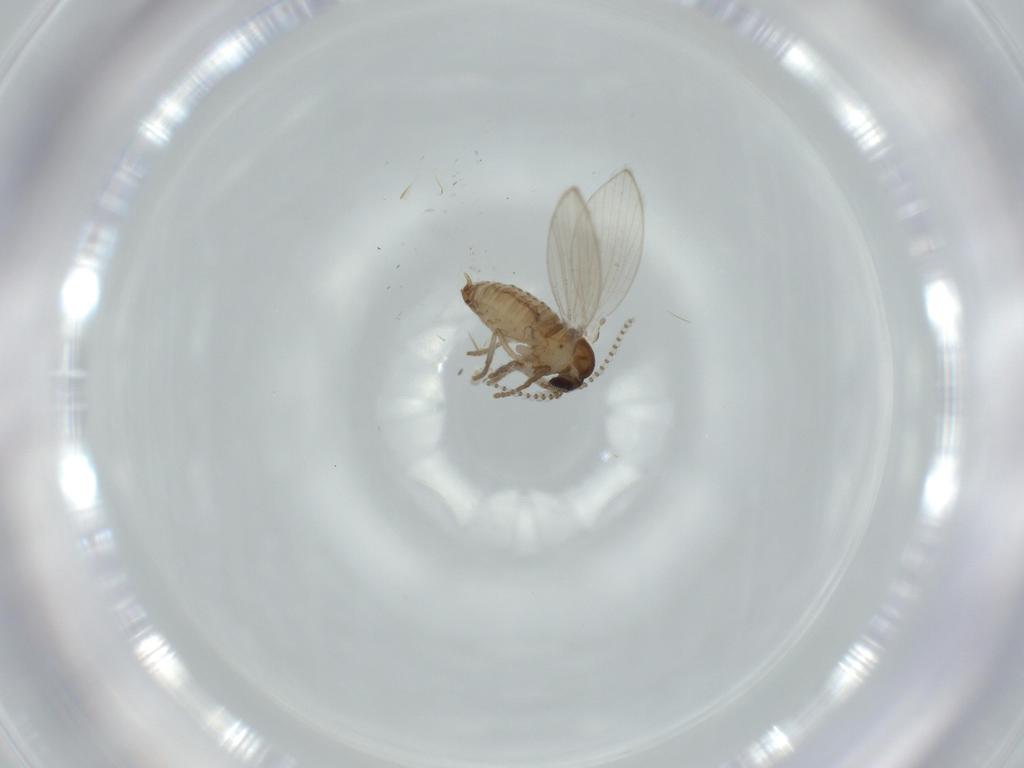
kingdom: Animalia
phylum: Arthropoda
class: Insecta
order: Diptera
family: Psychodidae
